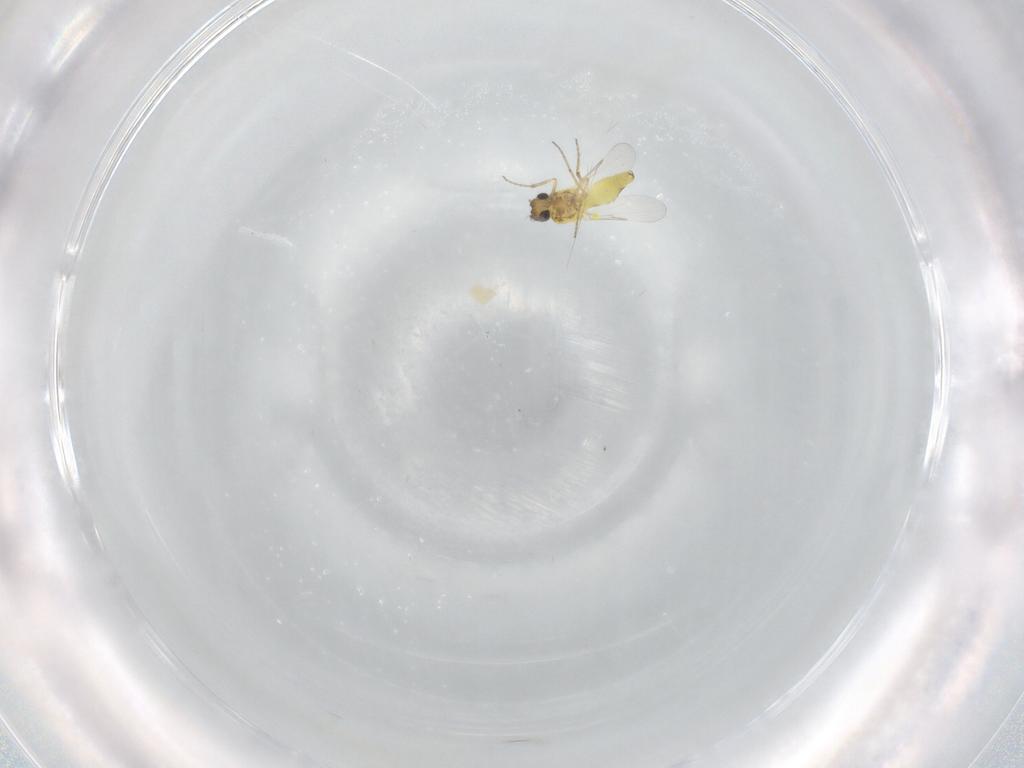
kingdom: Animalia
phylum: Arthropoda
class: Insecta
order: Diptera
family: Ceratopogonidae
